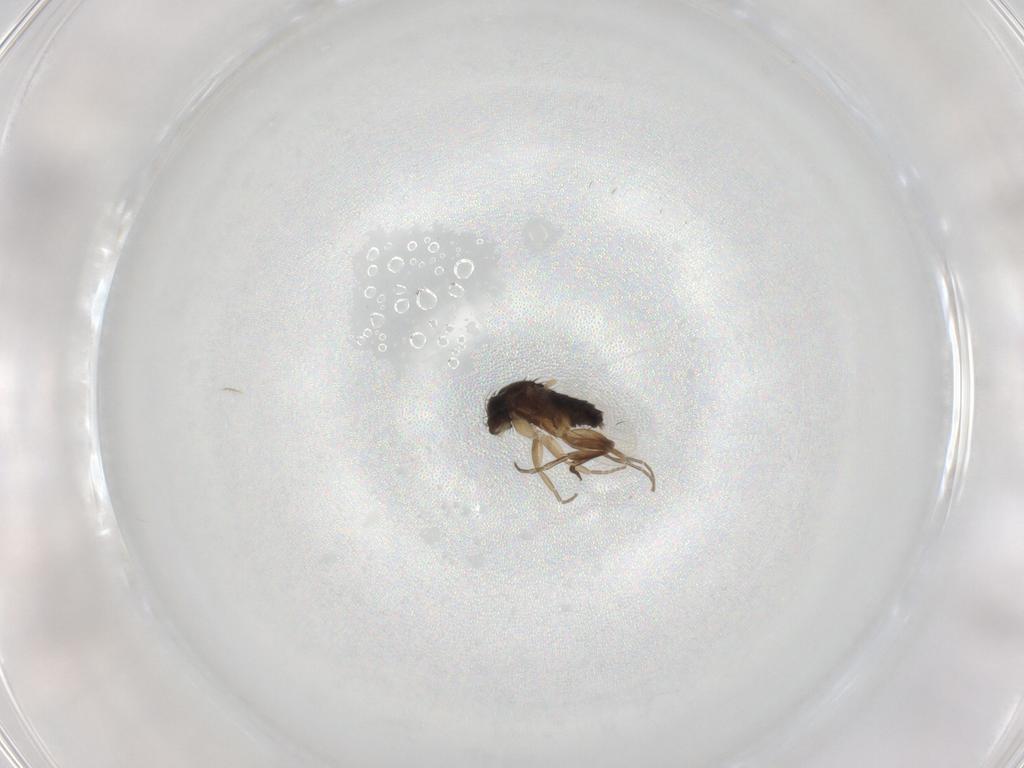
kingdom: Animalia
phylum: Arthropoda
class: Insecta
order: Diptera
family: Phoridae
